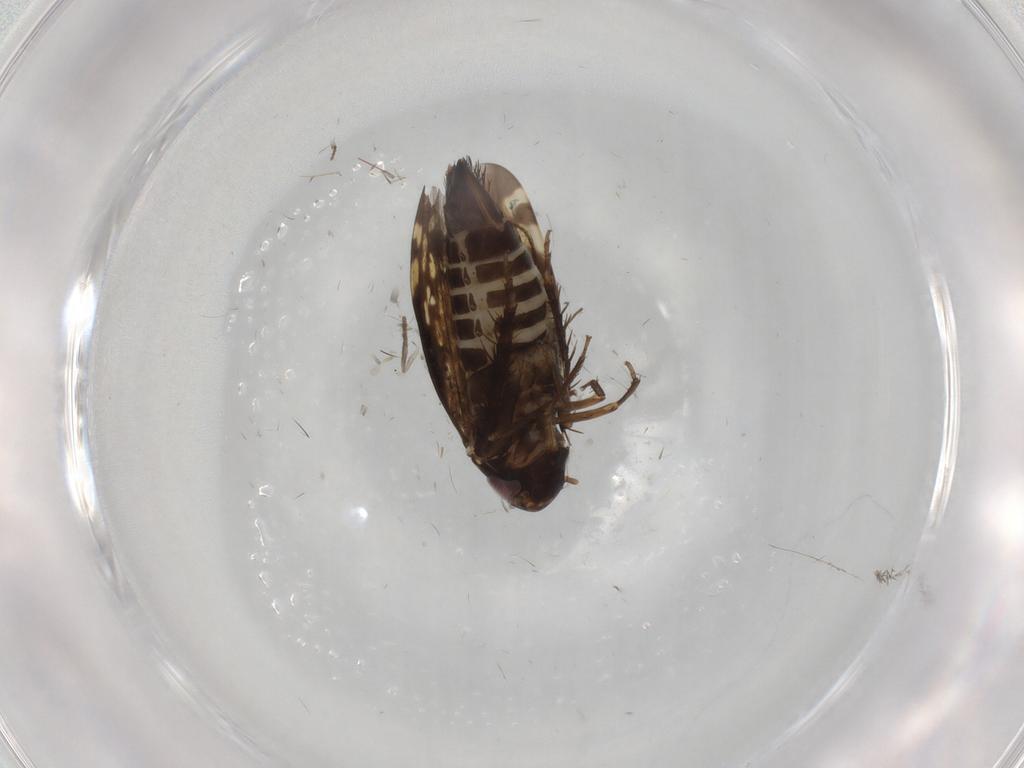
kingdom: Animalia
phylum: Arthropoda
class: Insecta
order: Hemiptera
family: Cicadellidae
